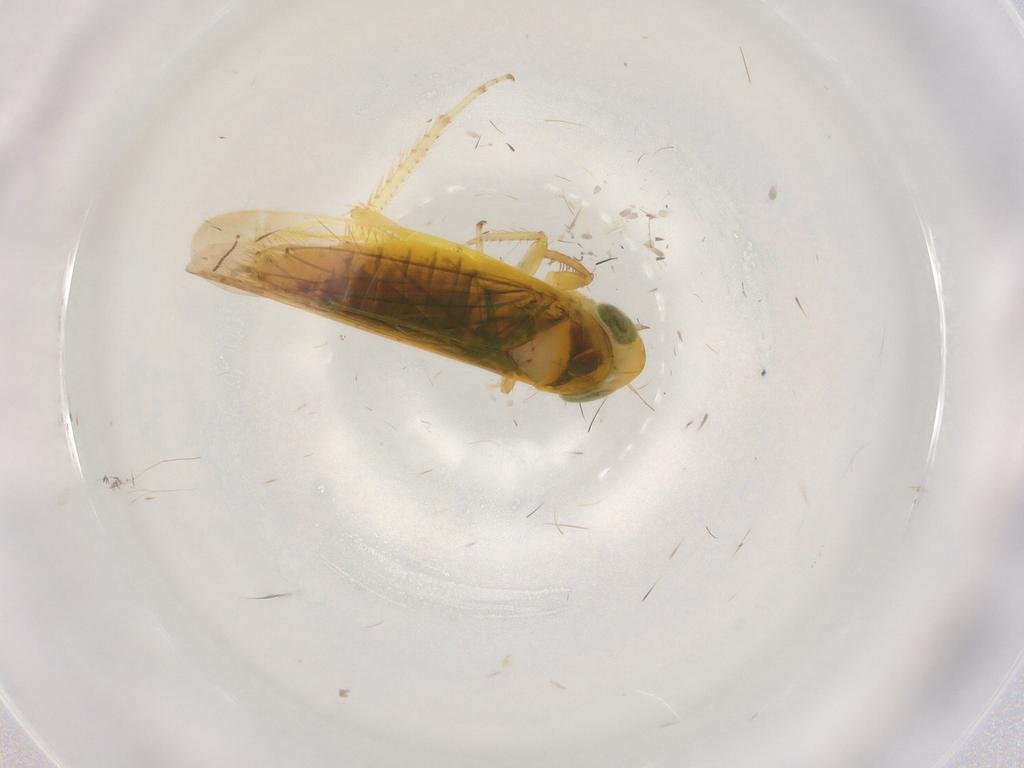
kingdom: Animalia
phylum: Arthropoda
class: Insecta
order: Hemiptera
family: Cicadellidae
